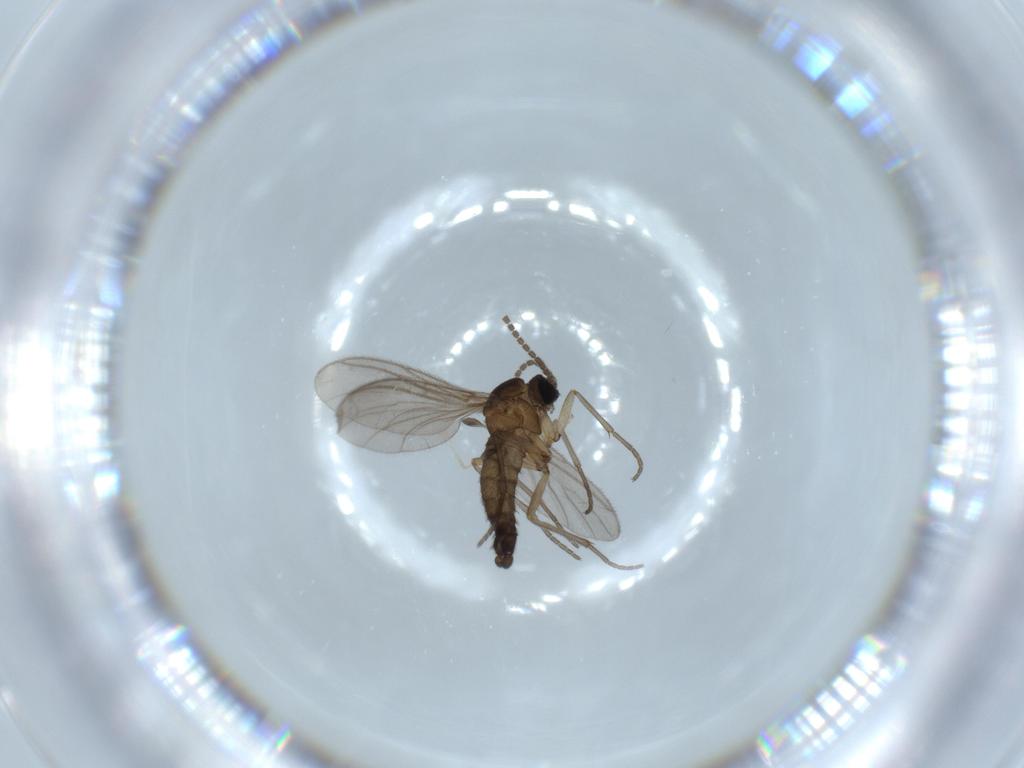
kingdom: Animalia
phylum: Arthropoda
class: Insecta
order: Diptera
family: Sciaridae
